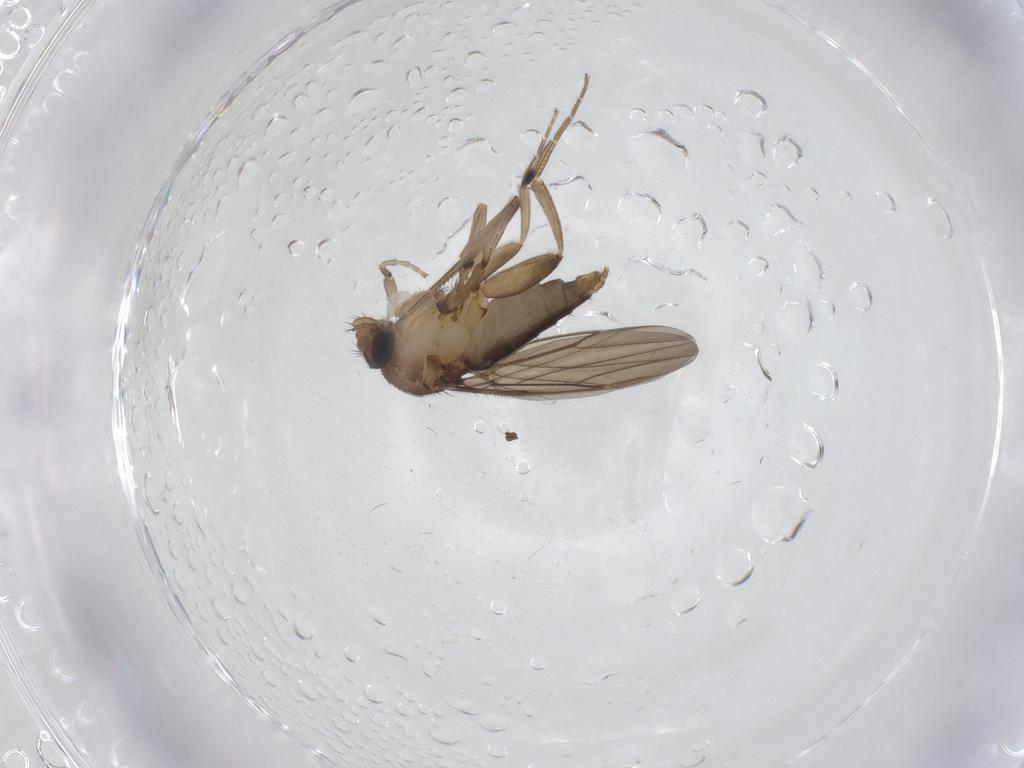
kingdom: Animalia
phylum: Arthropoda
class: Insecta
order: Diptera
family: Phoridae
